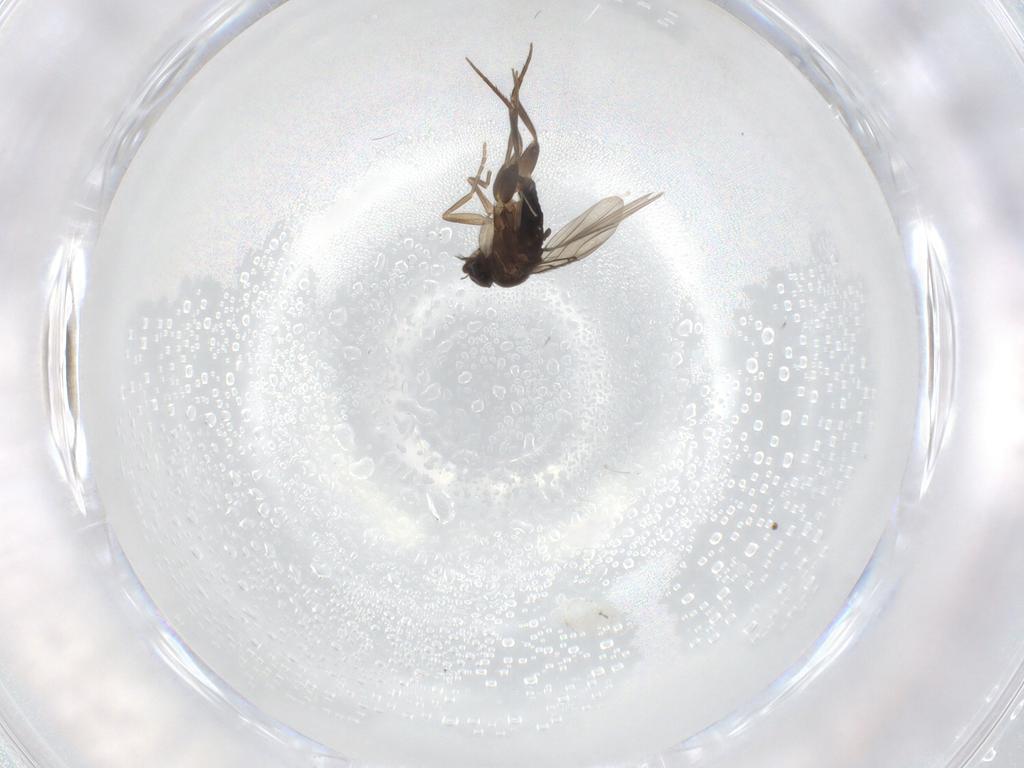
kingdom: Animalia
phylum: Arthropoda
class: Insecta
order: Diptera
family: Phoridae
